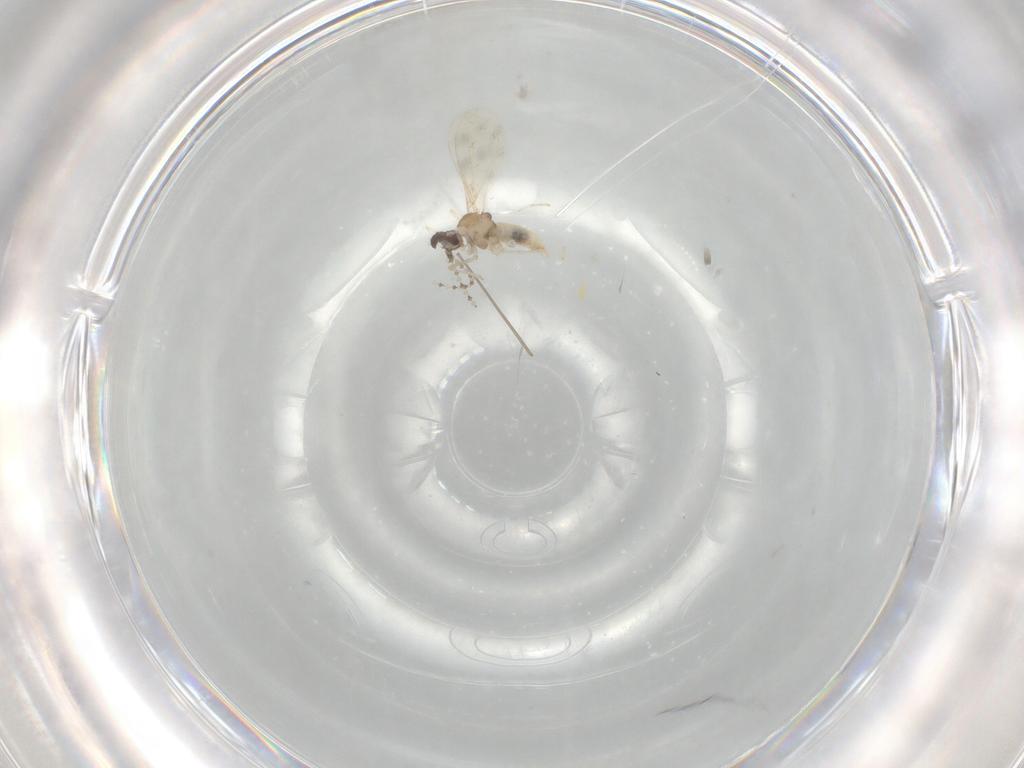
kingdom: Animalia
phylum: Arthropoda
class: Insecta
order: Diptera
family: Cecidomyiidae
